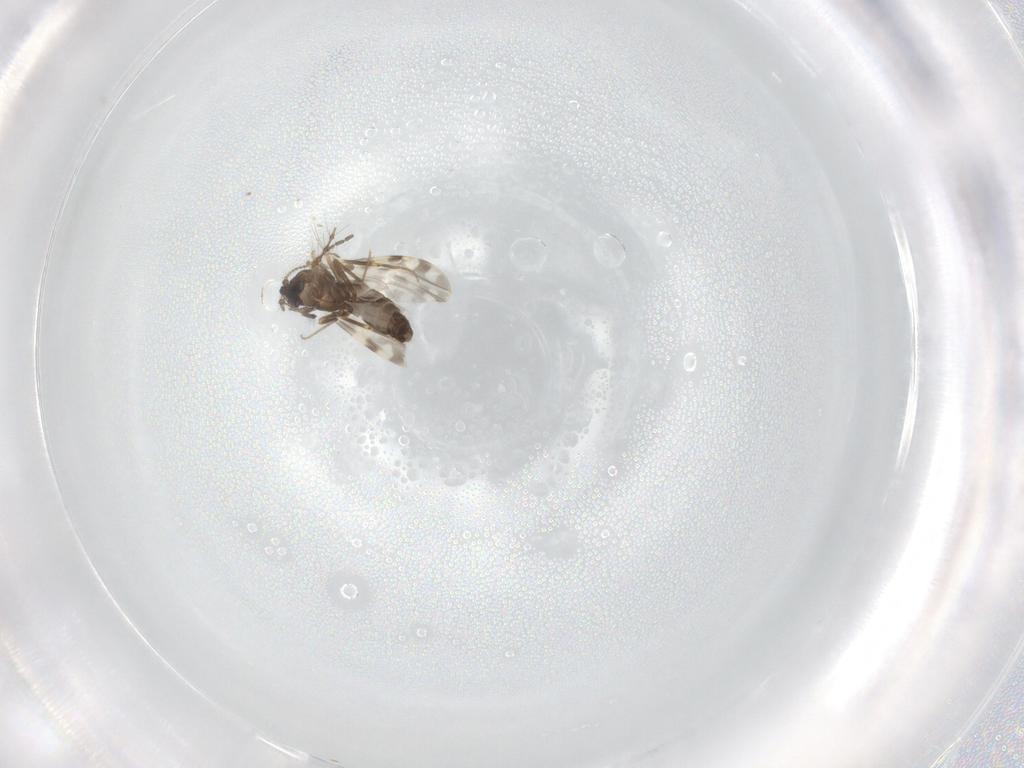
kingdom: Animalia
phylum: Arthropoda
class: Insecta
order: Diptera
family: Ceratopogonidae
